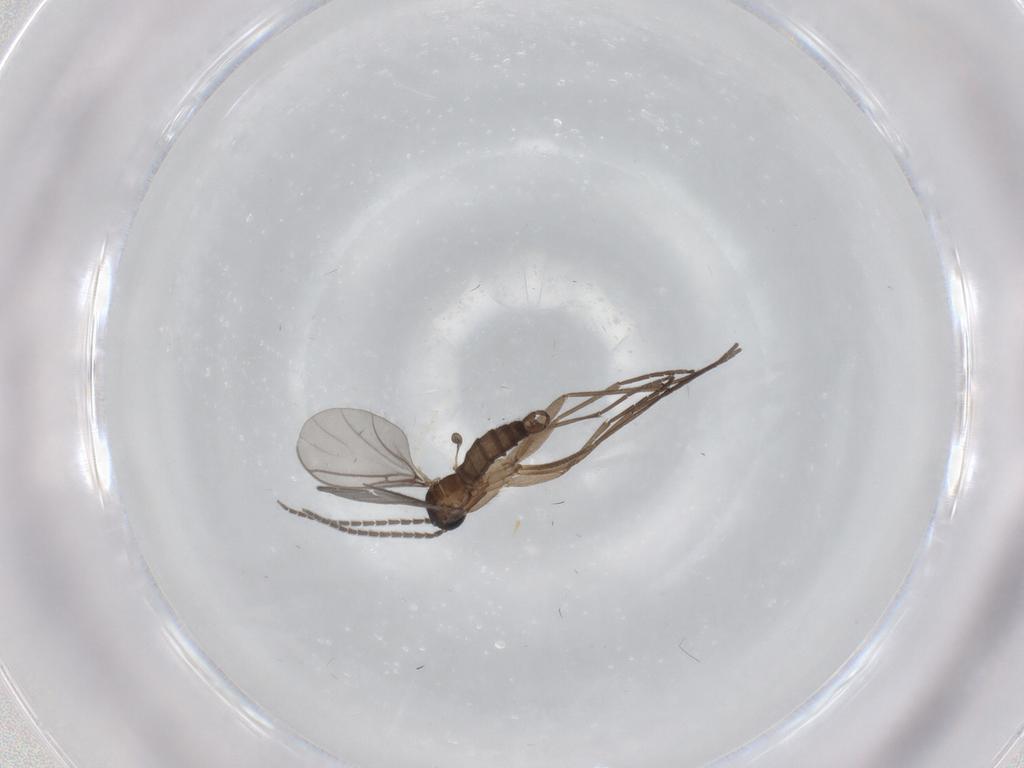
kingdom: Animalia
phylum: Arthropoda
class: Insecta
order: Diptera
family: Sciaridae
